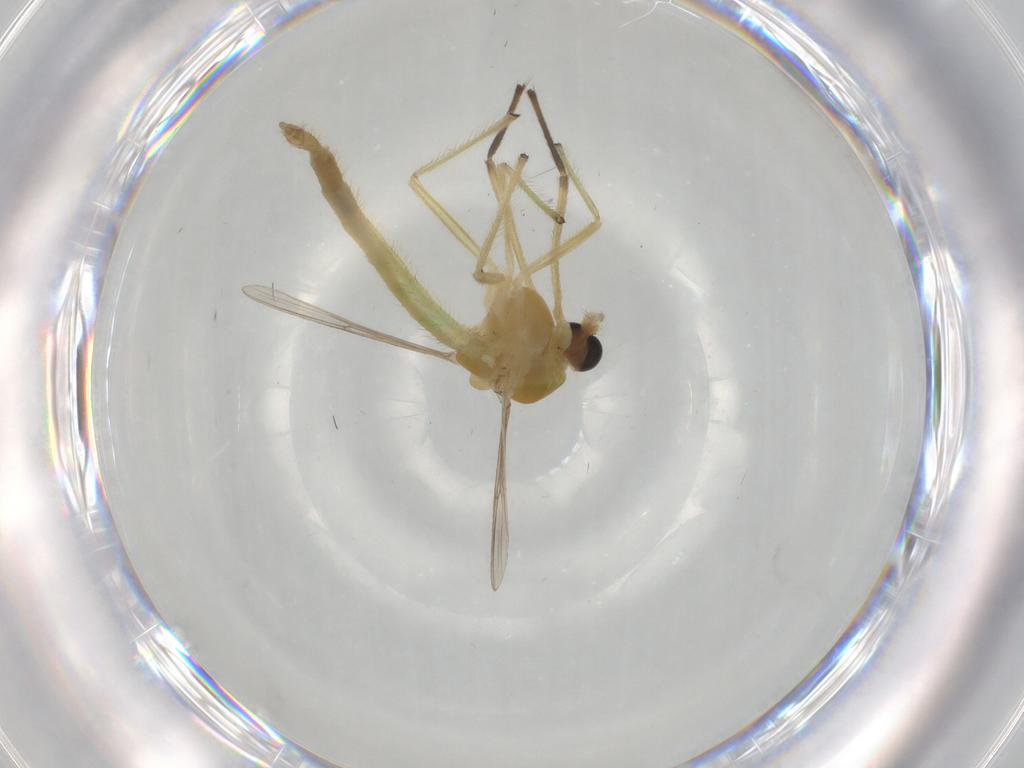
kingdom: Animalia
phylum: Arthropoda
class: Insecta
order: Diptera
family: Chironomidae
